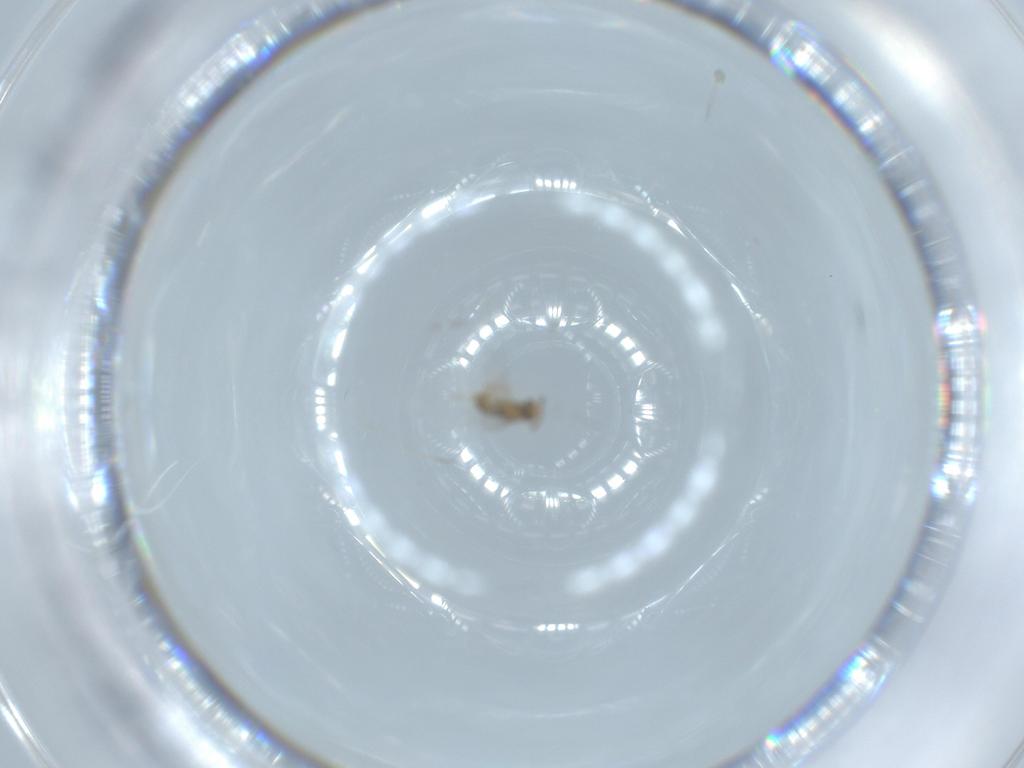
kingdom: Animalia
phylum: Arthropoda
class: Insecta
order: Hymenoptera
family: Encyrtidae
